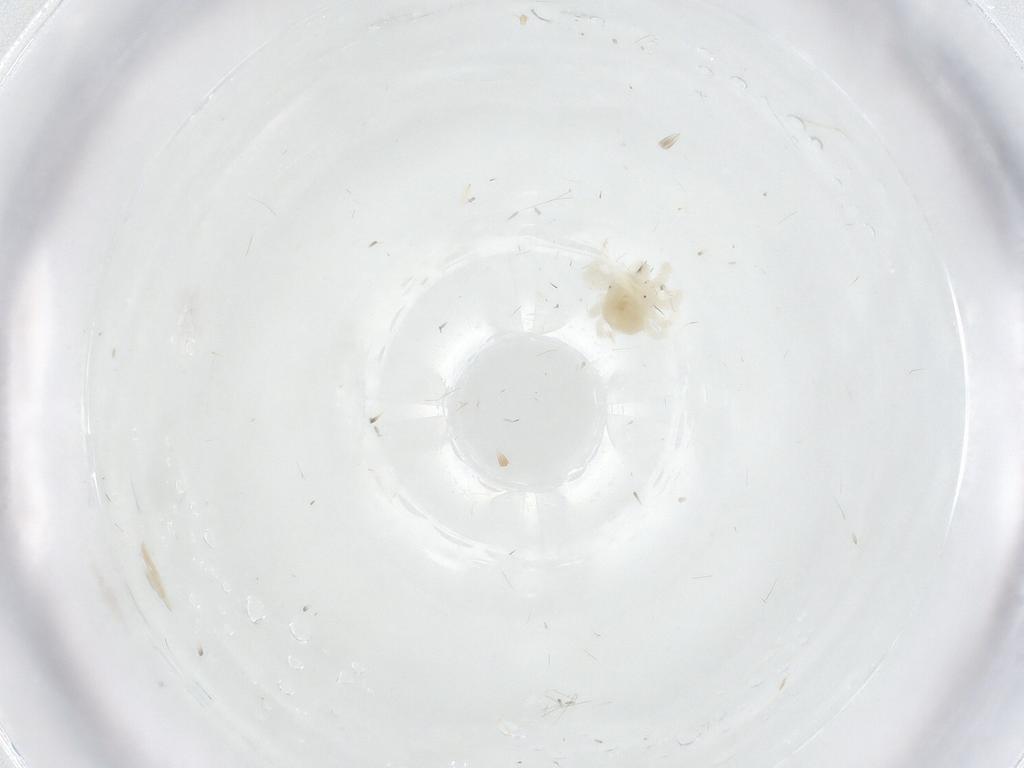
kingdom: Animalia
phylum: Arthropoda
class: Arachnida
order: Trombidiformes
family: Anystidae
